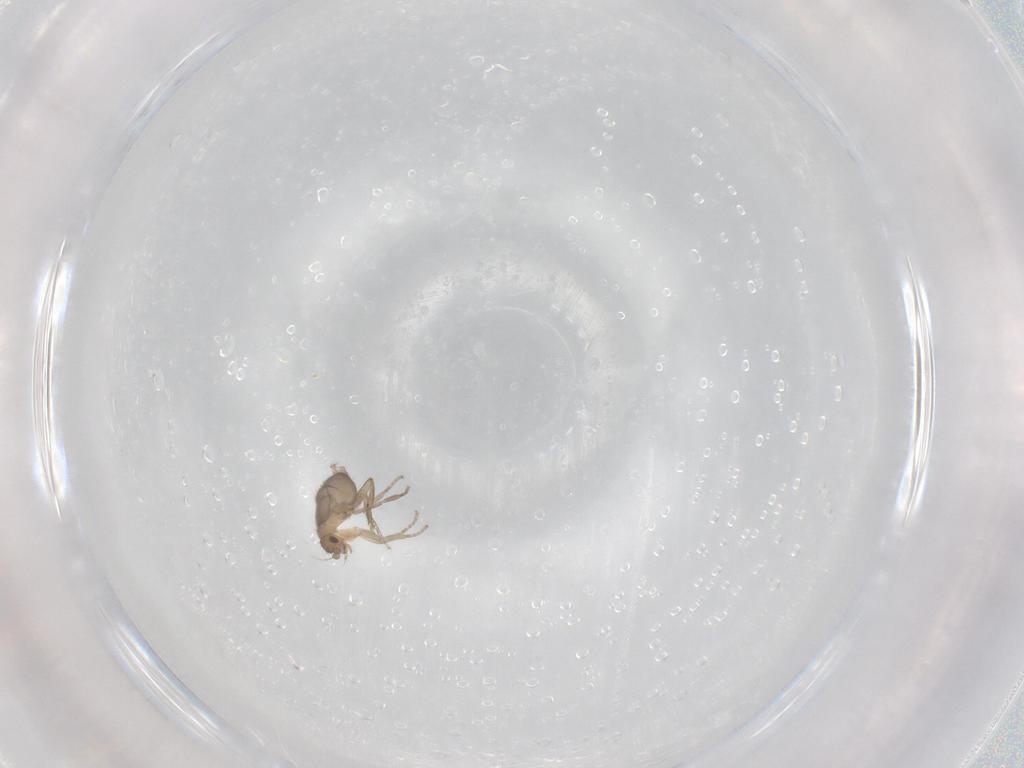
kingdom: Animalia
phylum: Arthropoda
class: Insecta
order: Diptera
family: Phoridae
